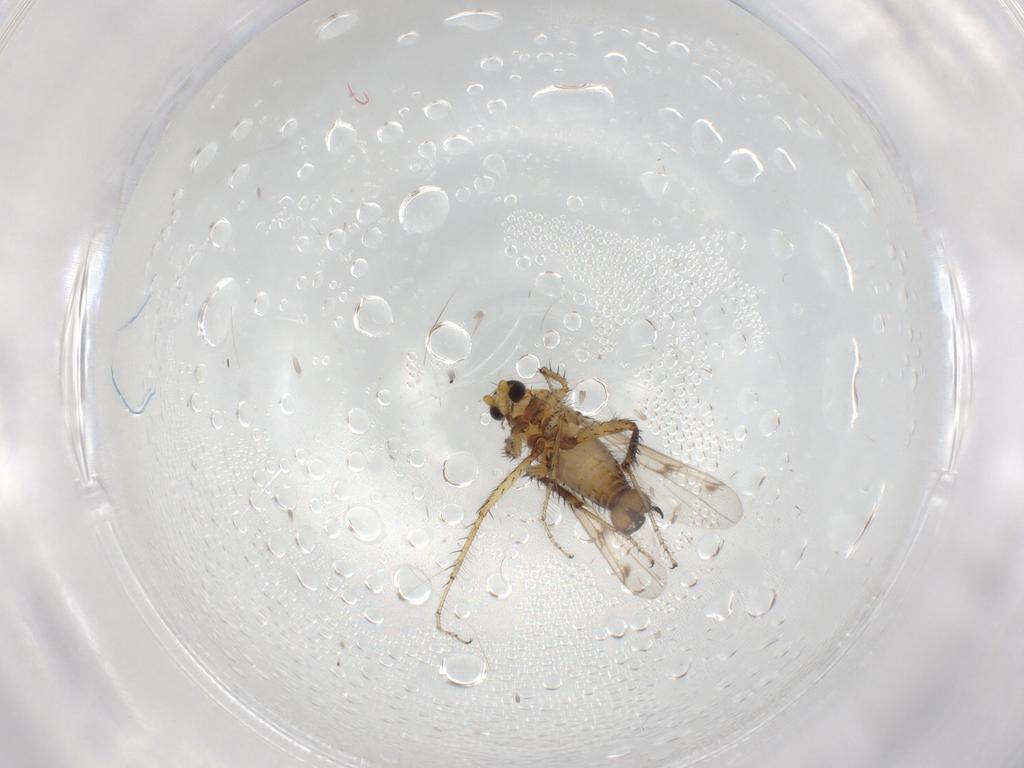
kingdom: Animalia
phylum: Arthropoda
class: Insecta
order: Diptera
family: Ceratopogonidae
